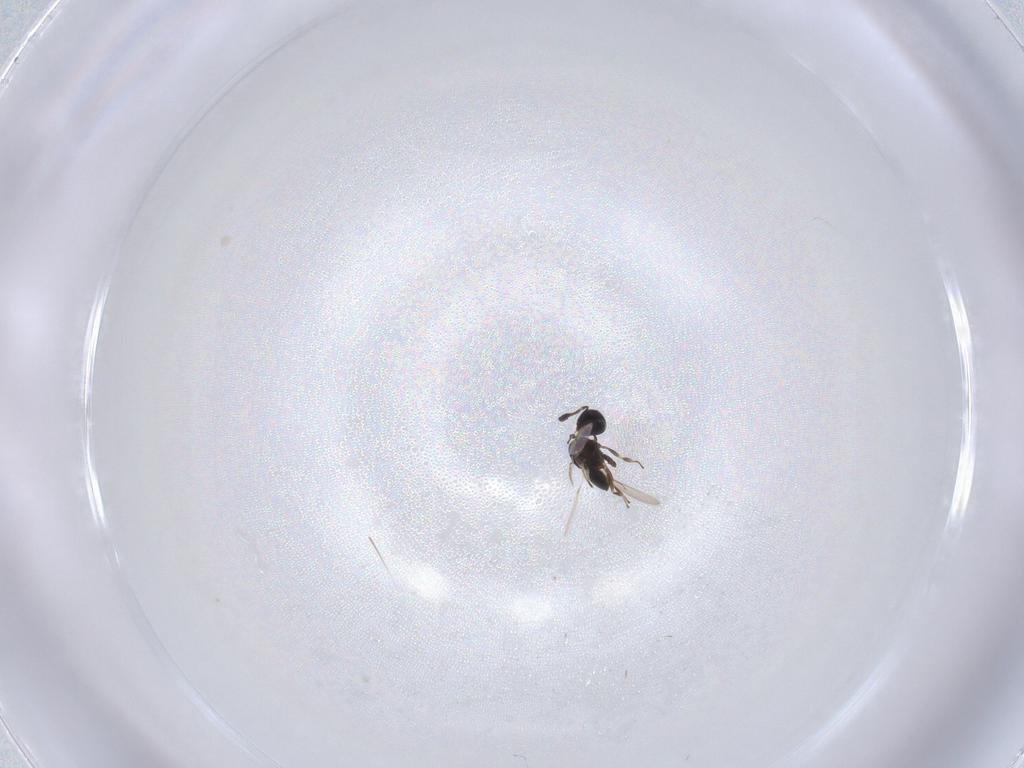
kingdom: Animalia
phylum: Arthropoda
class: Insecta
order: Hymenoptera
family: Scelionidae
